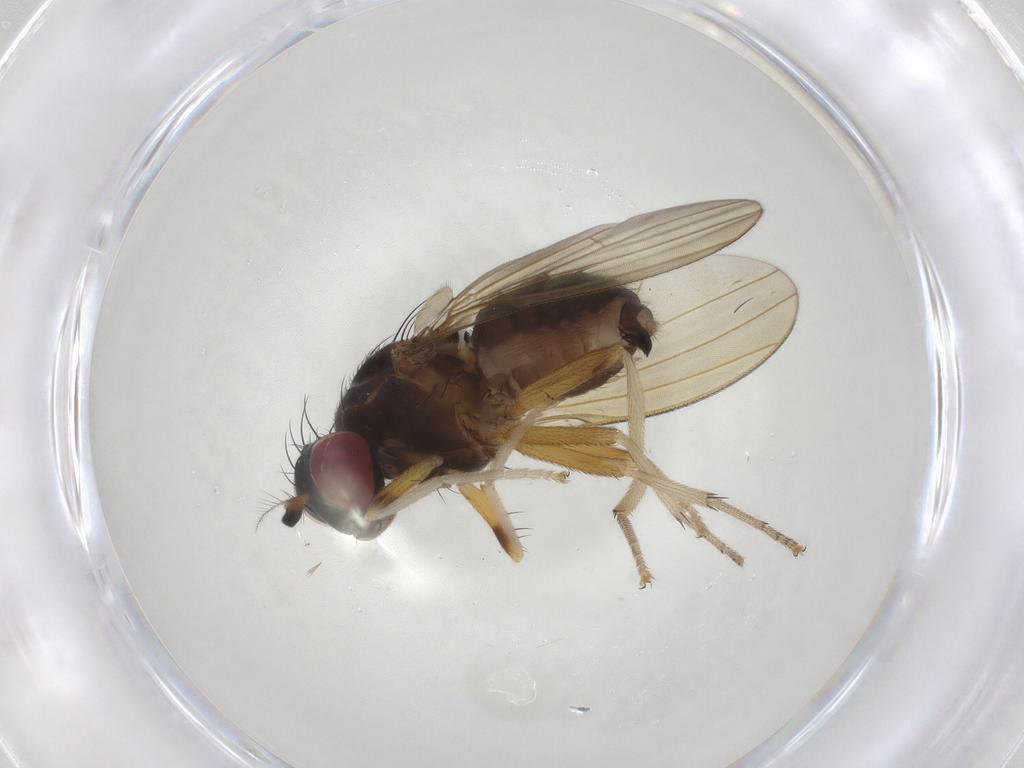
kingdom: Animalia
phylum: Arthropoda
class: Insecta
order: Diptera
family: Lauxaniidae
